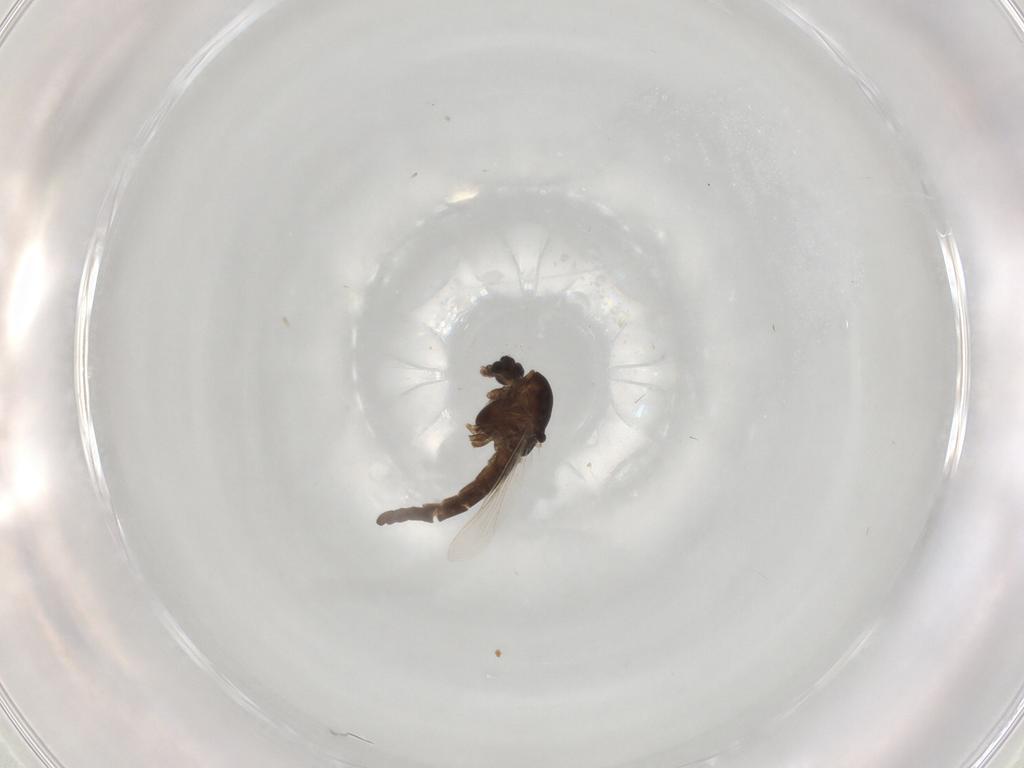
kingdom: Animalia
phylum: Arthropoda
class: Insecta
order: Diptera
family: Chironomidae
